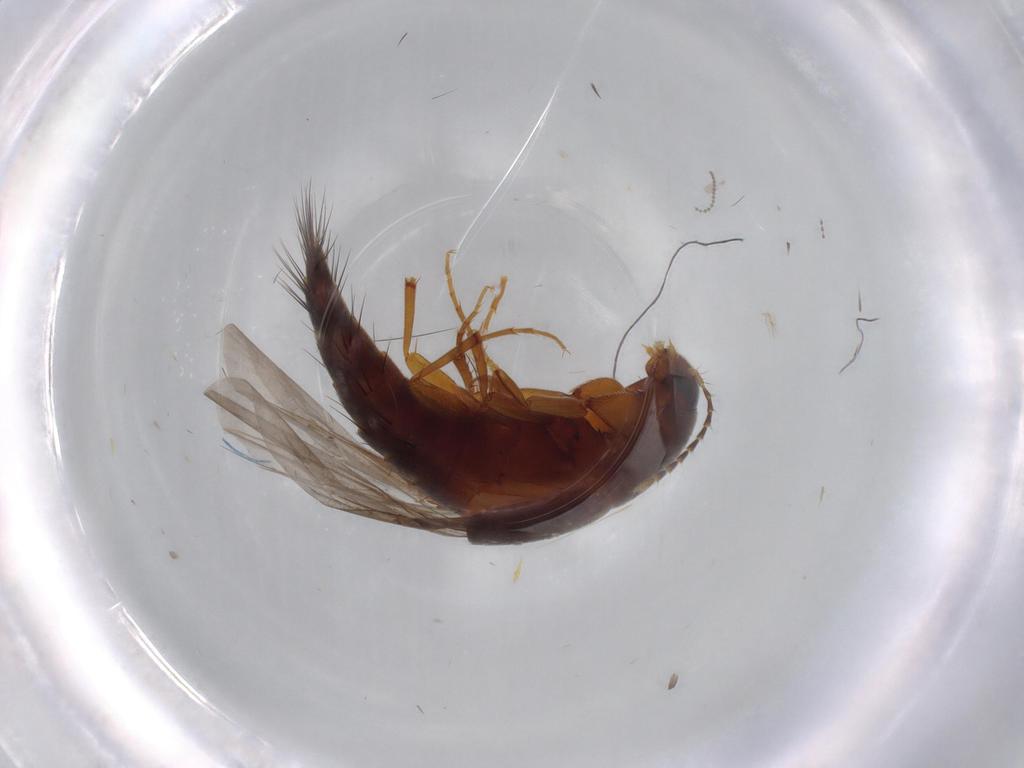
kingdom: Animalia
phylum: Arthropoda
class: Insecta
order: Coleoptera
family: Staphylinidae
